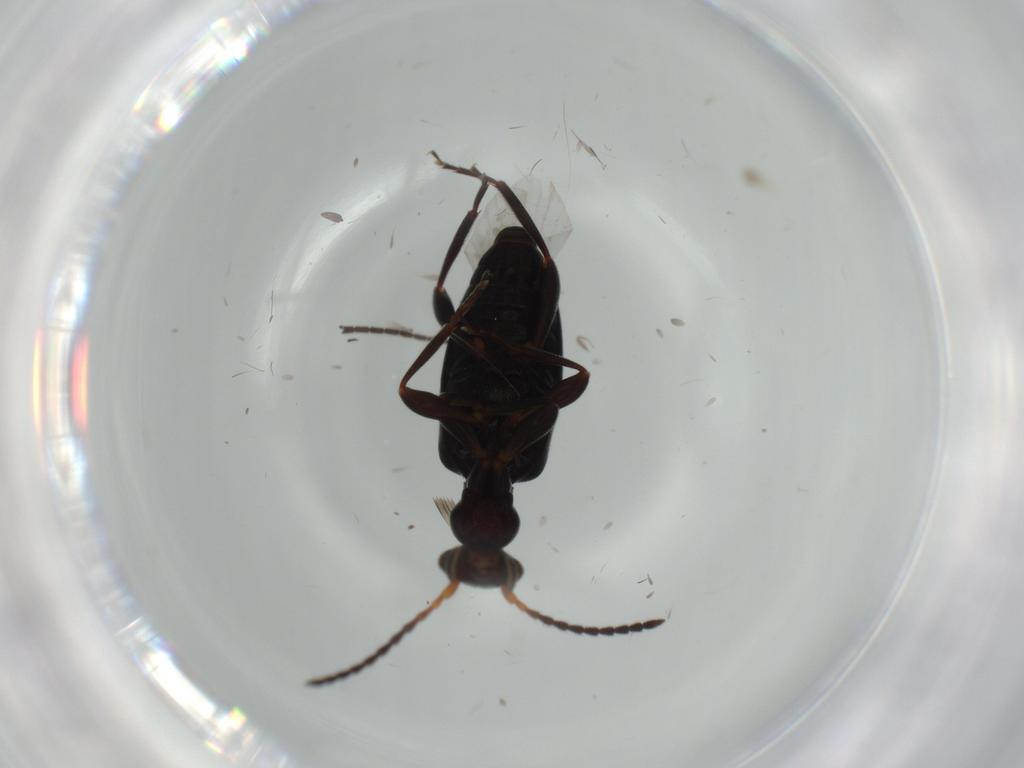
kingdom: Animalia
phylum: Arthropoda
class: Insecta
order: Coleoptera
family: Anthicidae
